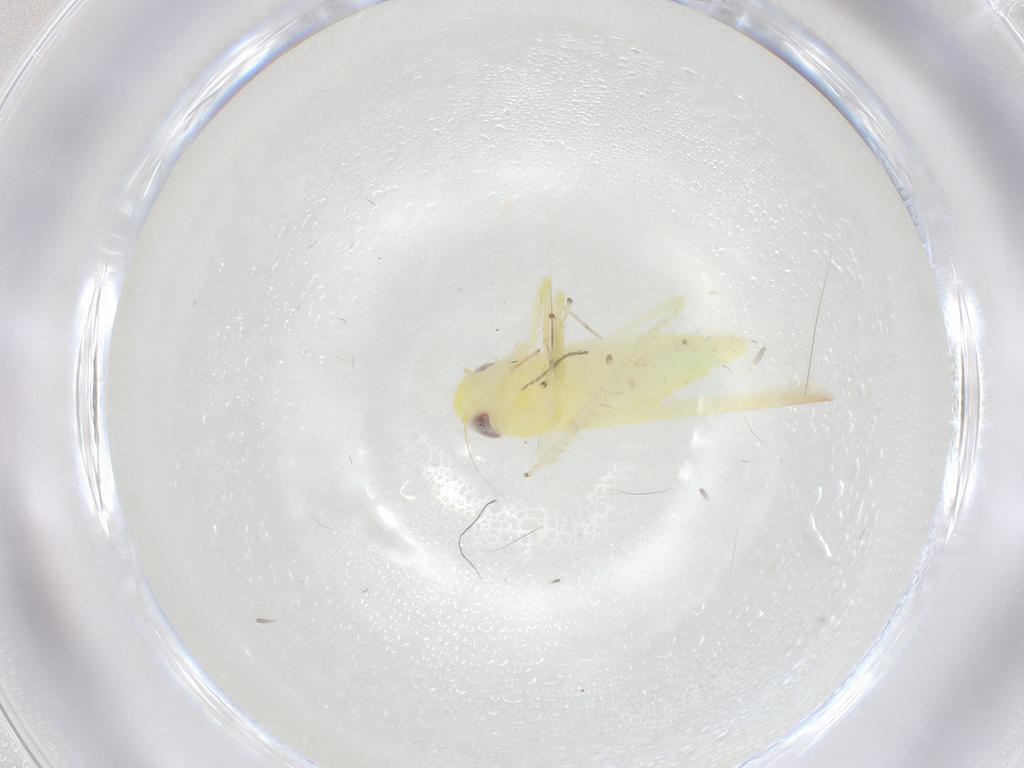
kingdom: Animalia
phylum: Arthropoda
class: Insecta
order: Hemiptera
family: Cicadellidae
